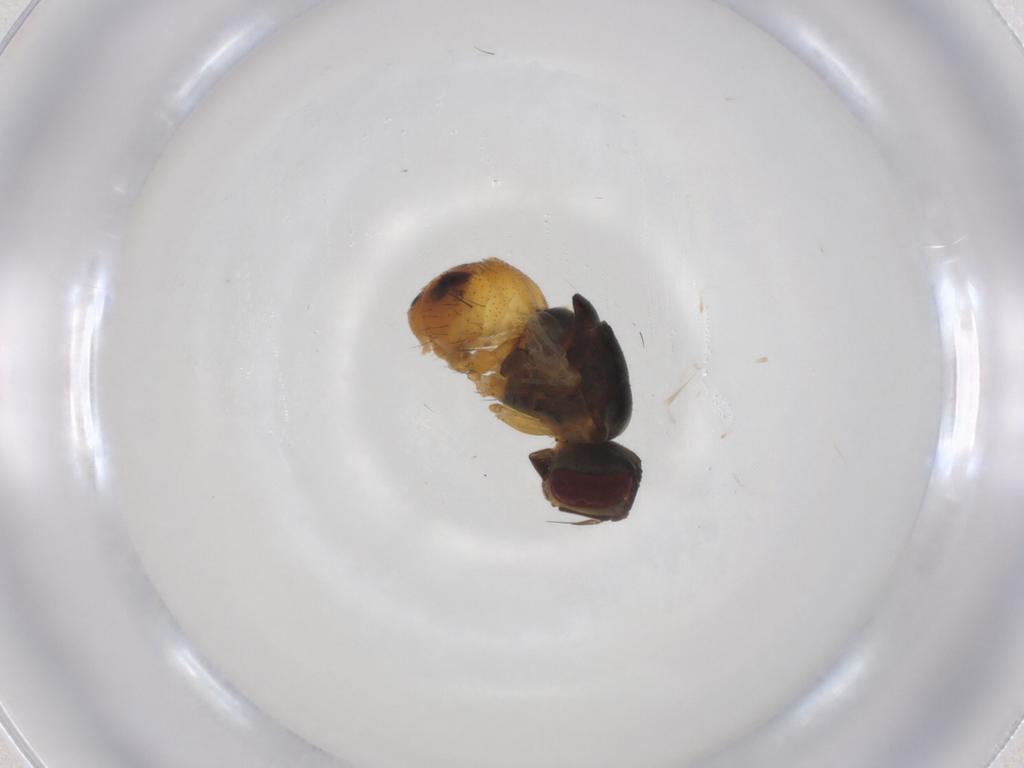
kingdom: Animalia
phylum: Arthropoda
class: Insecta
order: Diptera
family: Muscidae
